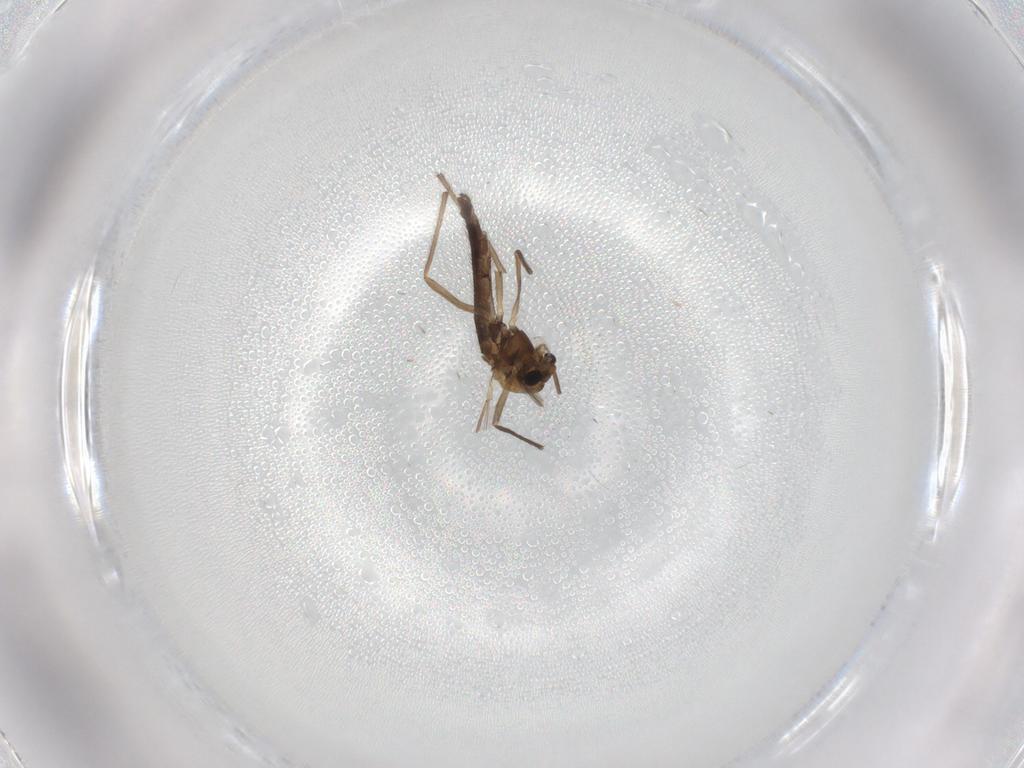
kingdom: Animalia
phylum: Arthropoda
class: Insecta
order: Diptera
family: Chironomidae
